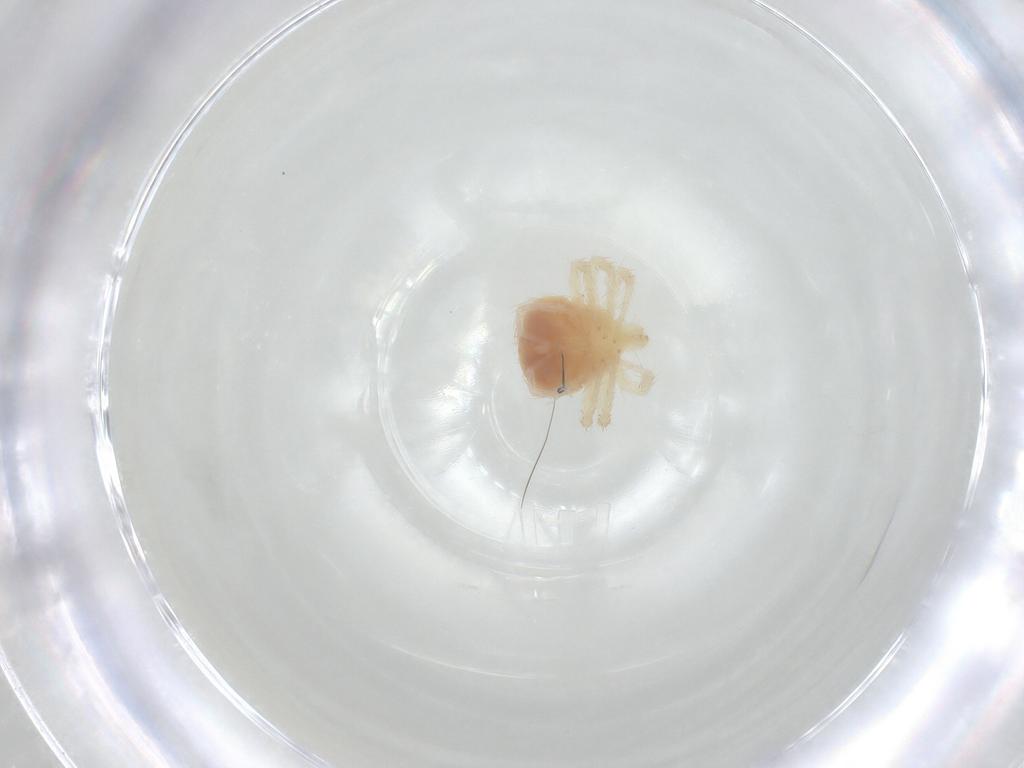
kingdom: Animalia
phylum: Arthropoda
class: Arachnida
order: Trombidiformes
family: Anystidae
